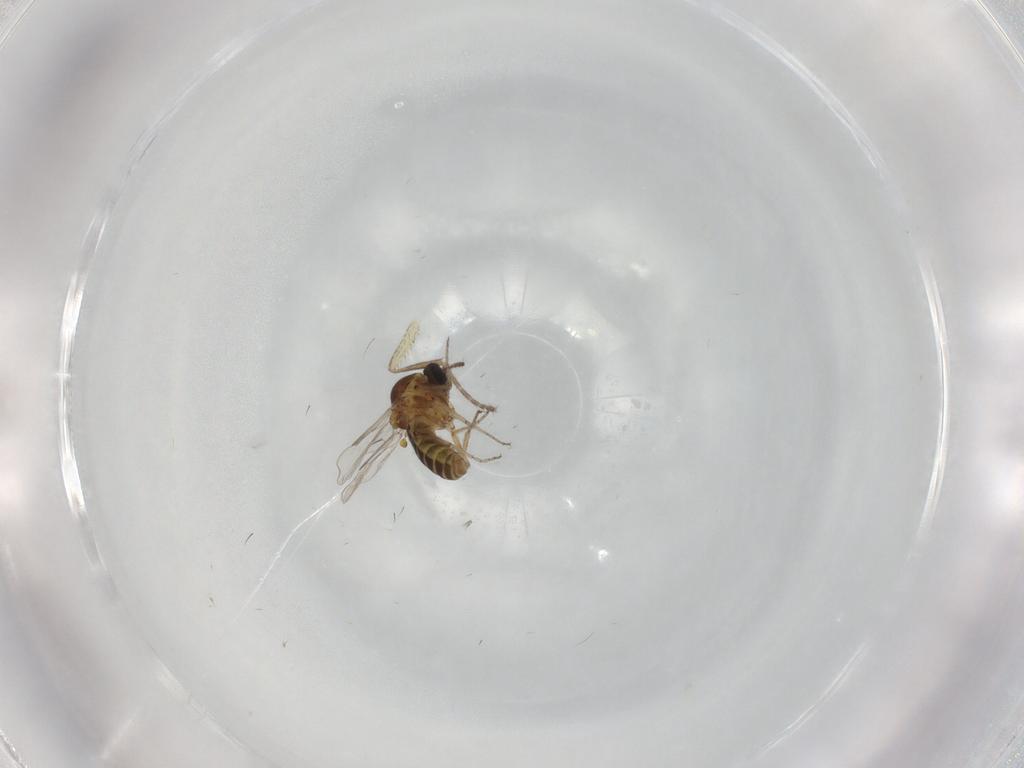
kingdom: Animalia
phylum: Arthropoda
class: Insecta
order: Diptera
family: Ceratopogonidae
